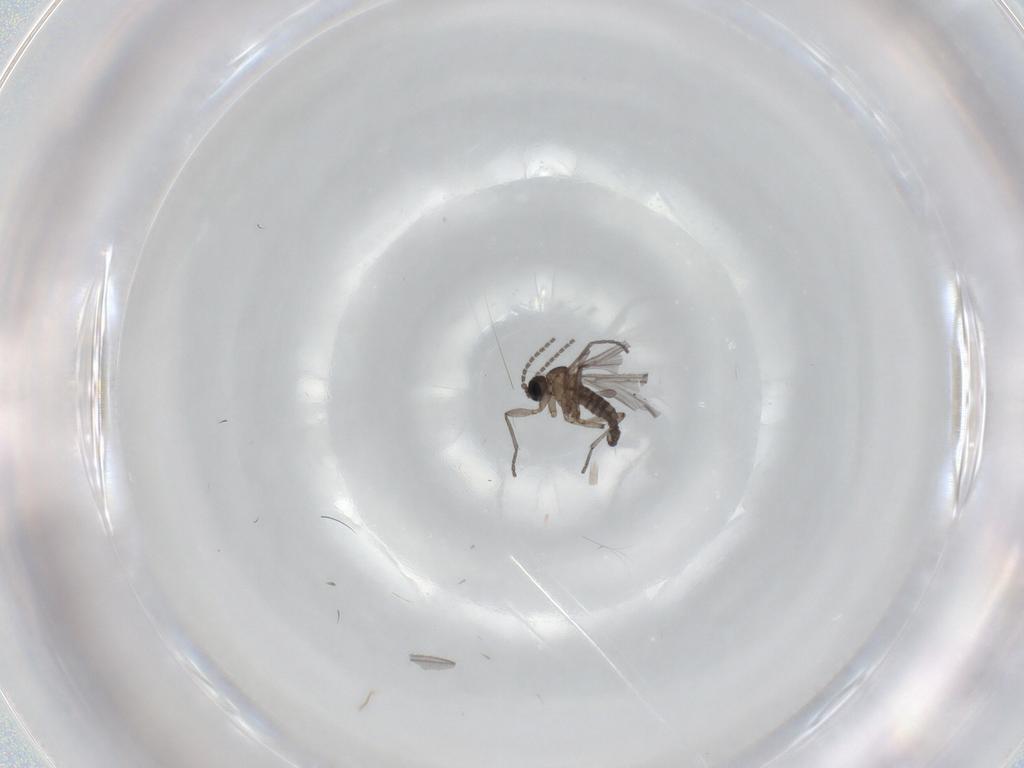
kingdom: Animalia
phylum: Arthropoda
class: Insecta
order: Diptera
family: Sciaridae
